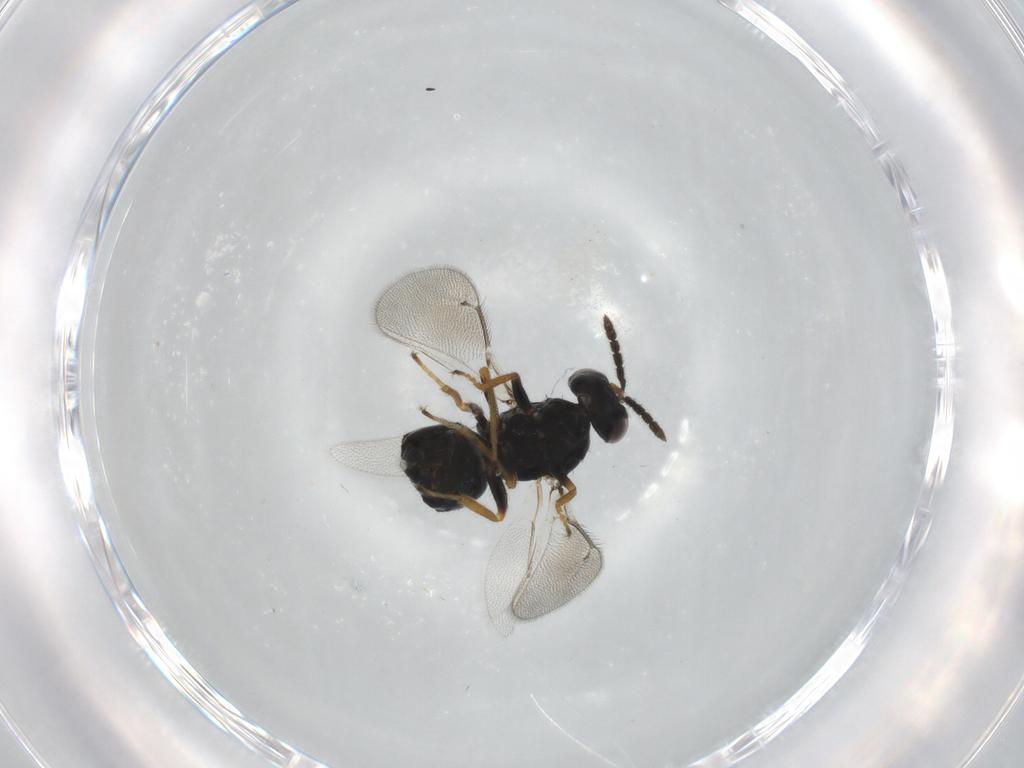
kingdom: Animalia
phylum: Arthropoda
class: Insecta
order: Hymenoptera
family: Eulophidae
